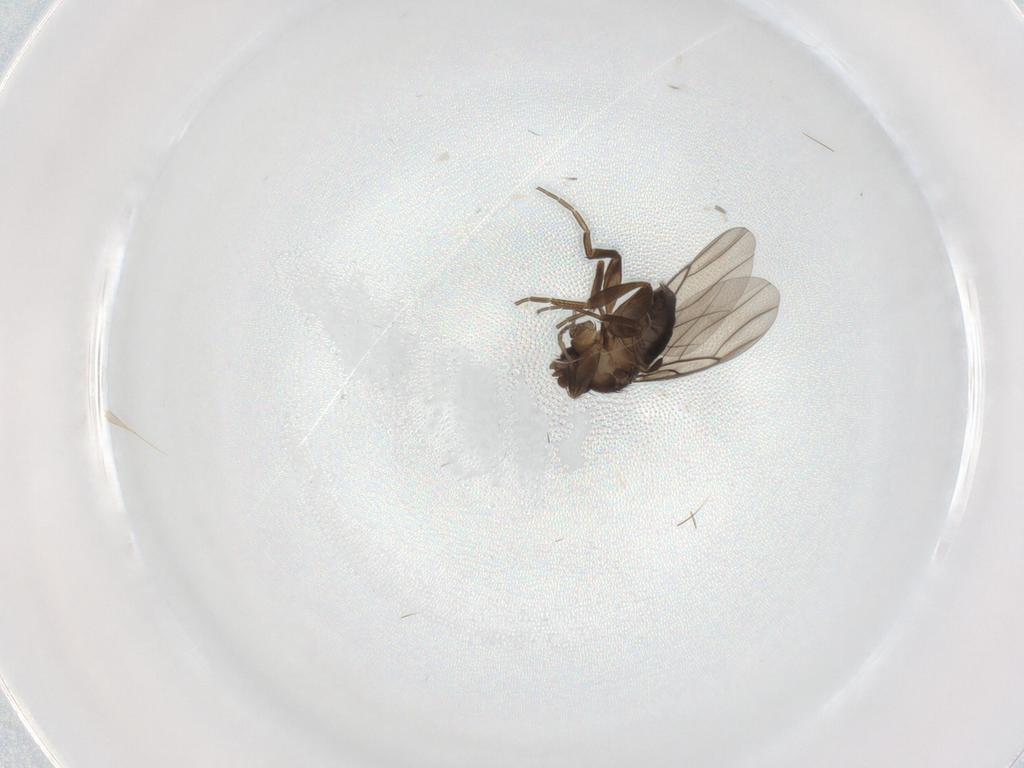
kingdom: Animalia
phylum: Arthropoda
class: Insecta
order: Diptera
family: Phoridae
